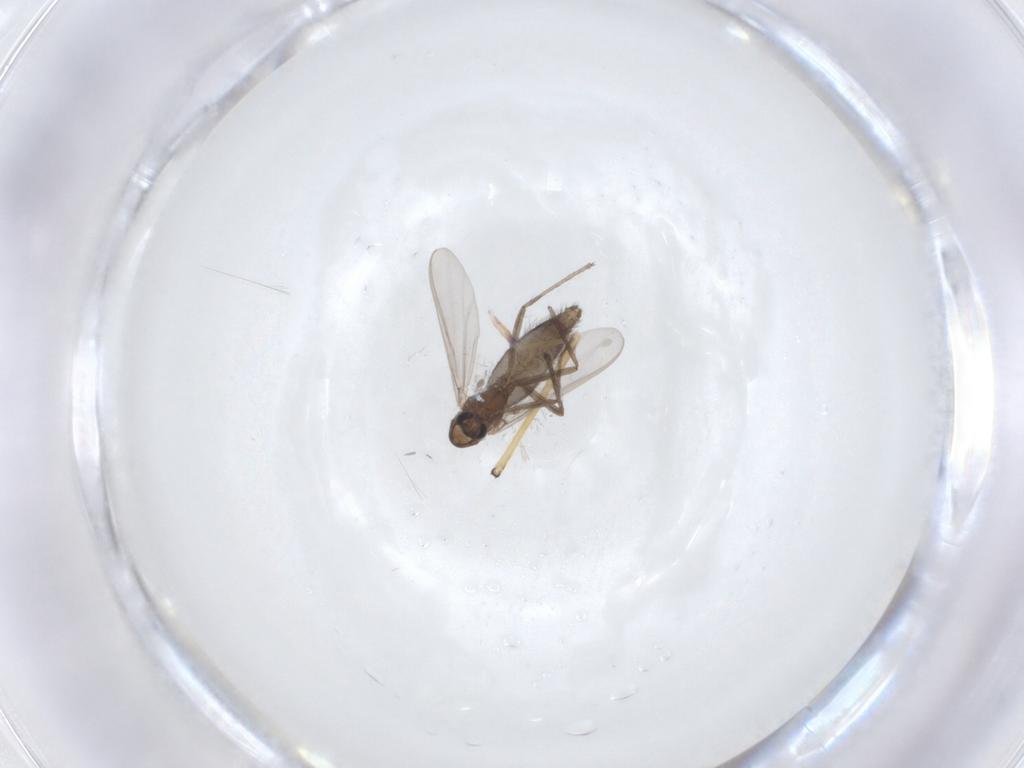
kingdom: Animalia
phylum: Arthropoda
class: Insecta
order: Diptera
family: Chironomidae
